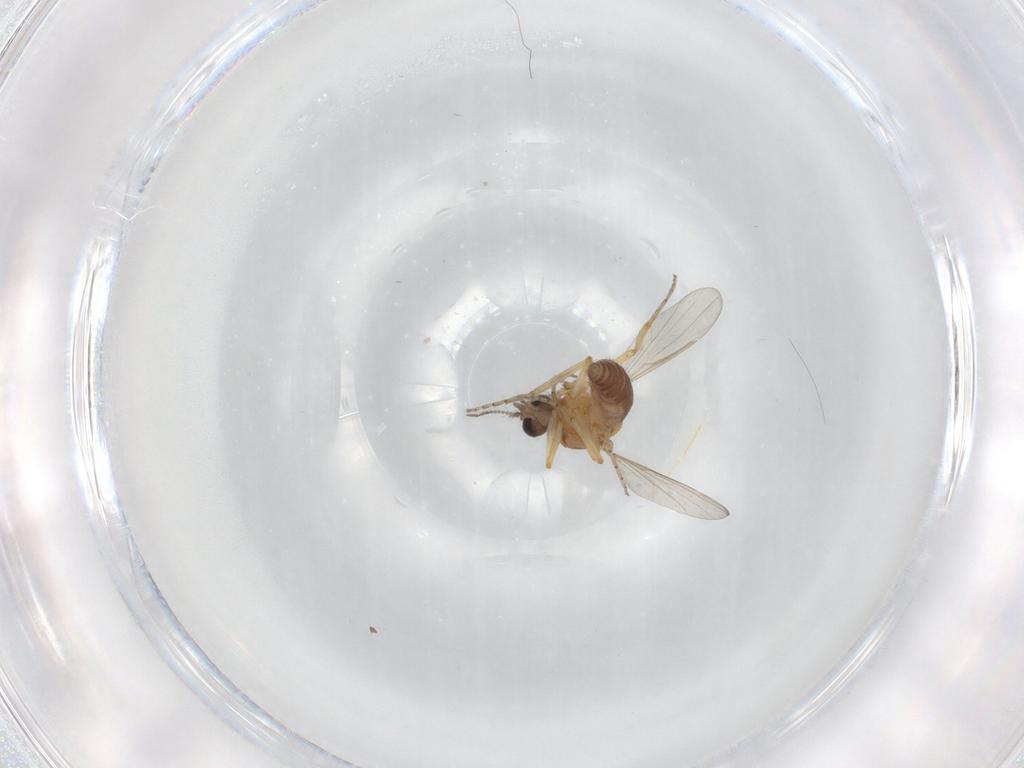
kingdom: Animalia
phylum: Arthropoda
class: Insecta
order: Diptera
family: Ceratopogonidae
